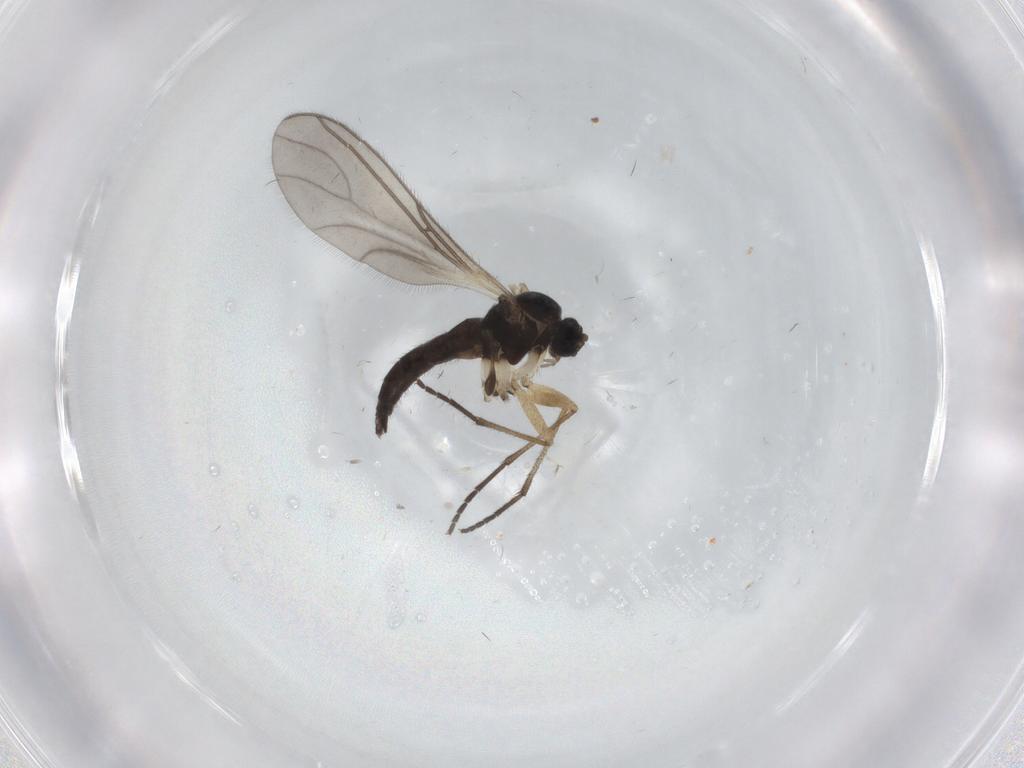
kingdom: Animalia
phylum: Arthropoda
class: Insecta
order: Diptera
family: Sciaridae
